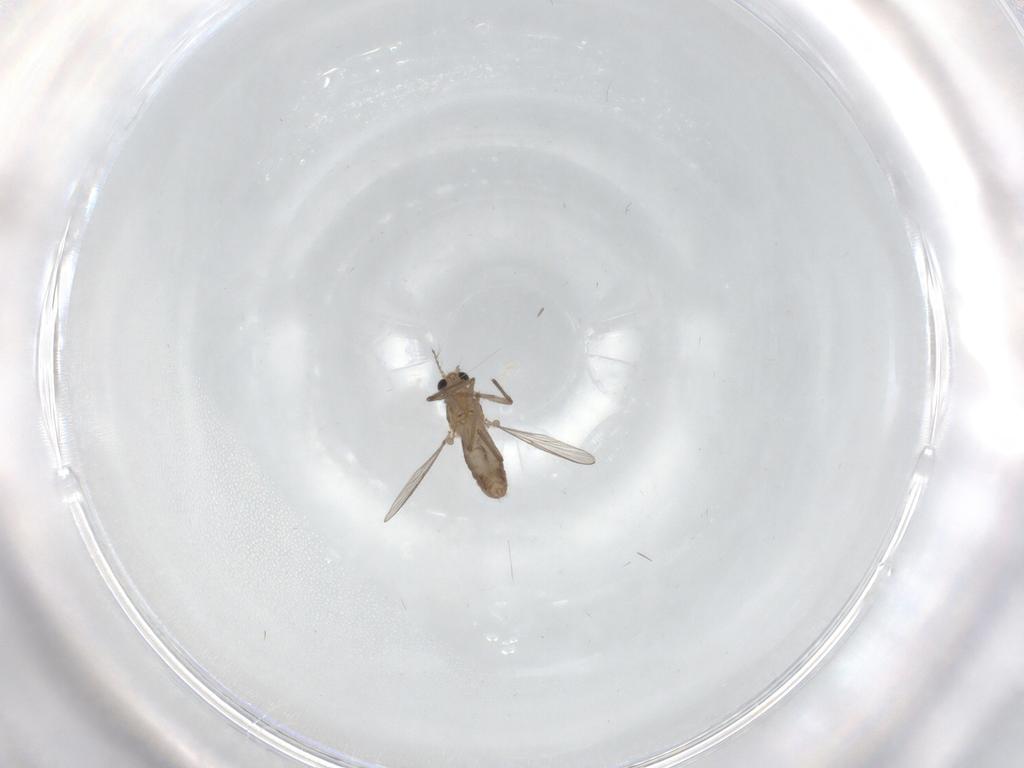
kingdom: Animalia
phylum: Arthropoda
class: Insecta
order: Diptera
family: Chironomidae
